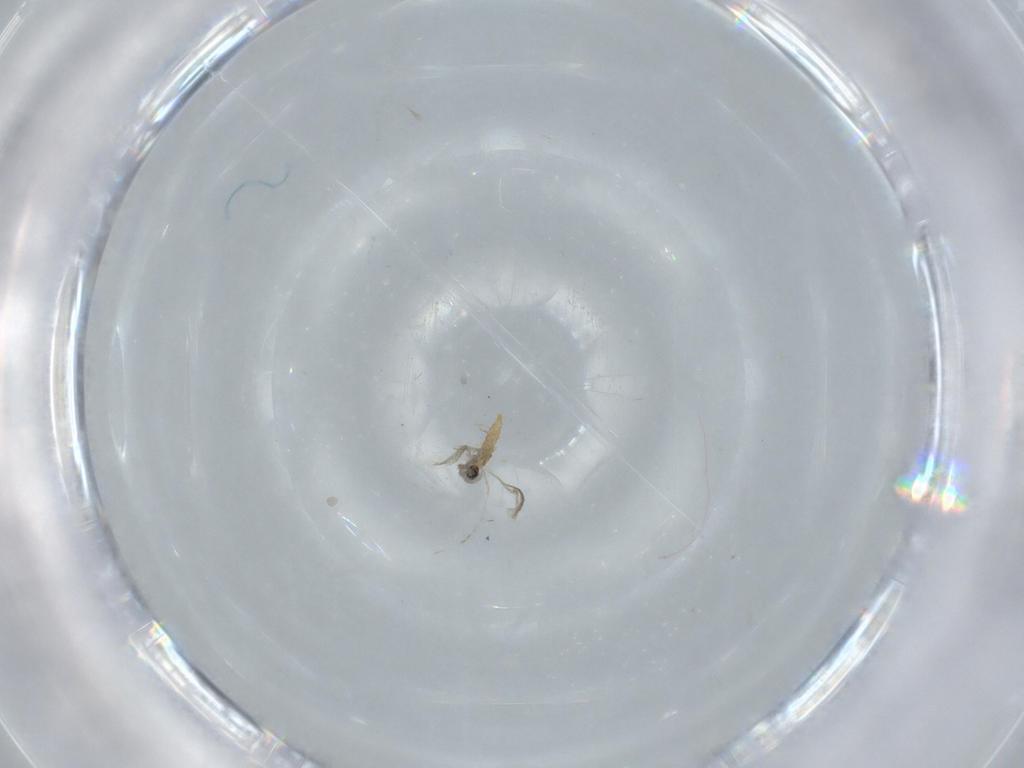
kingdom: Animalia
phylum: Arthropoda
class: Insecta
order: Diptera
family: Cecidomyiidae
